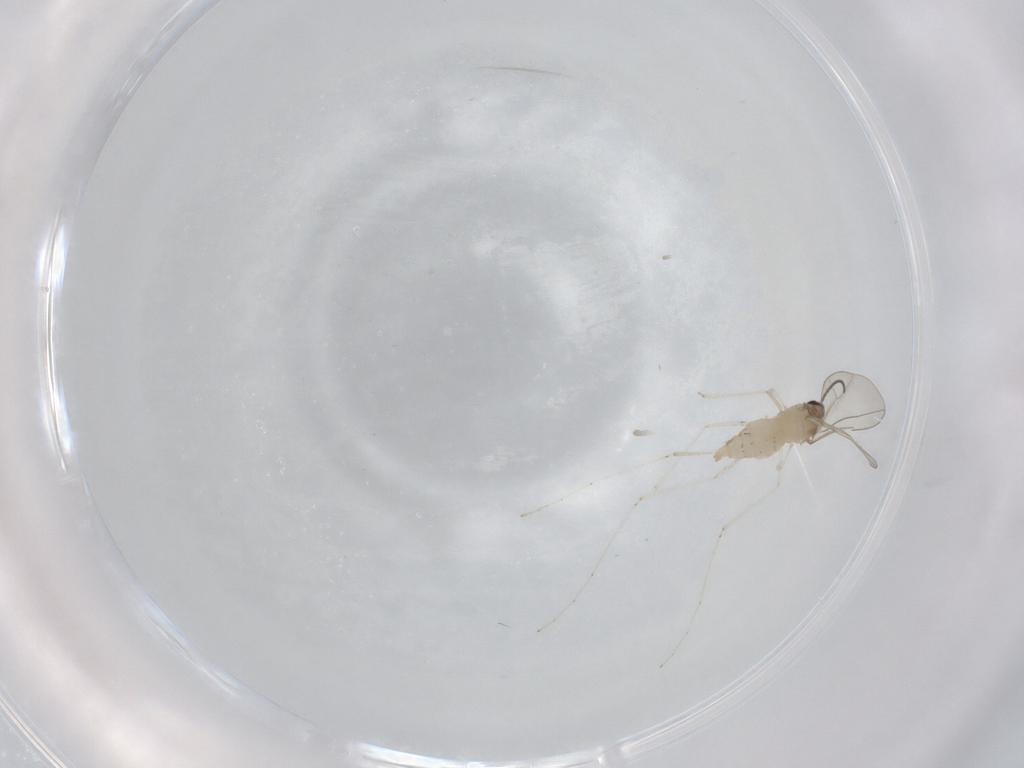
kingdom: Animalia
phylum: Arthropoda
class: Insecta
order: Diptera
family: Cecidomyiidae
